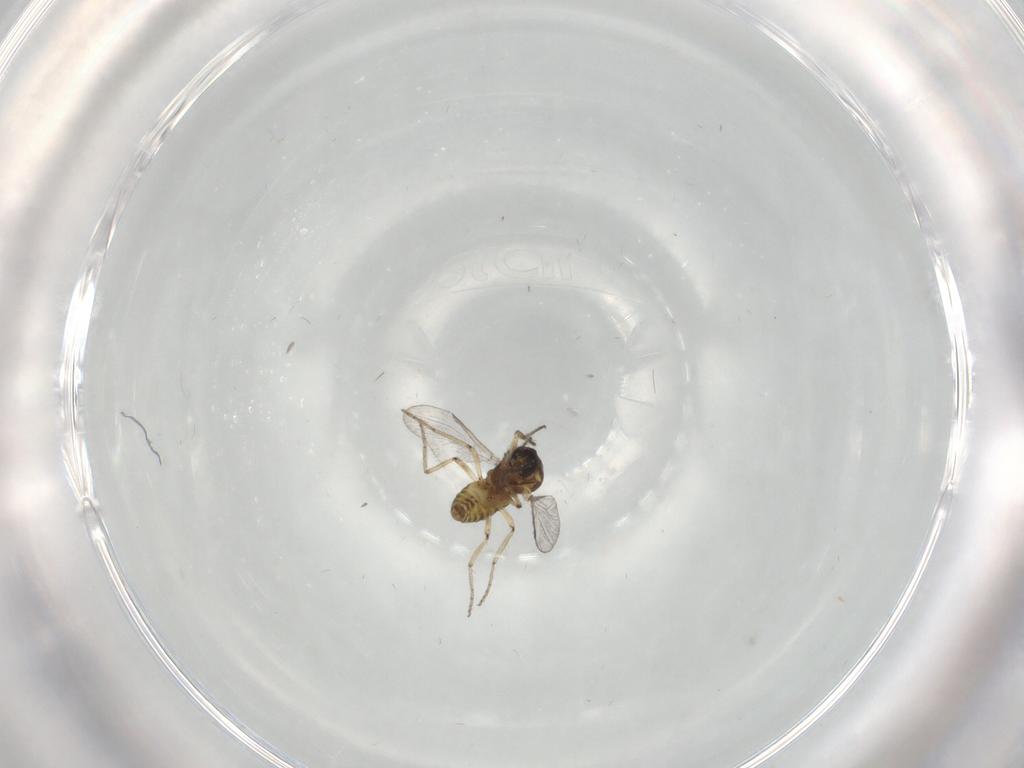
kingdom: Animalia
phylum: Arthropoda
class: Insecta
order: Diptera
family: Ceratopogonidae
